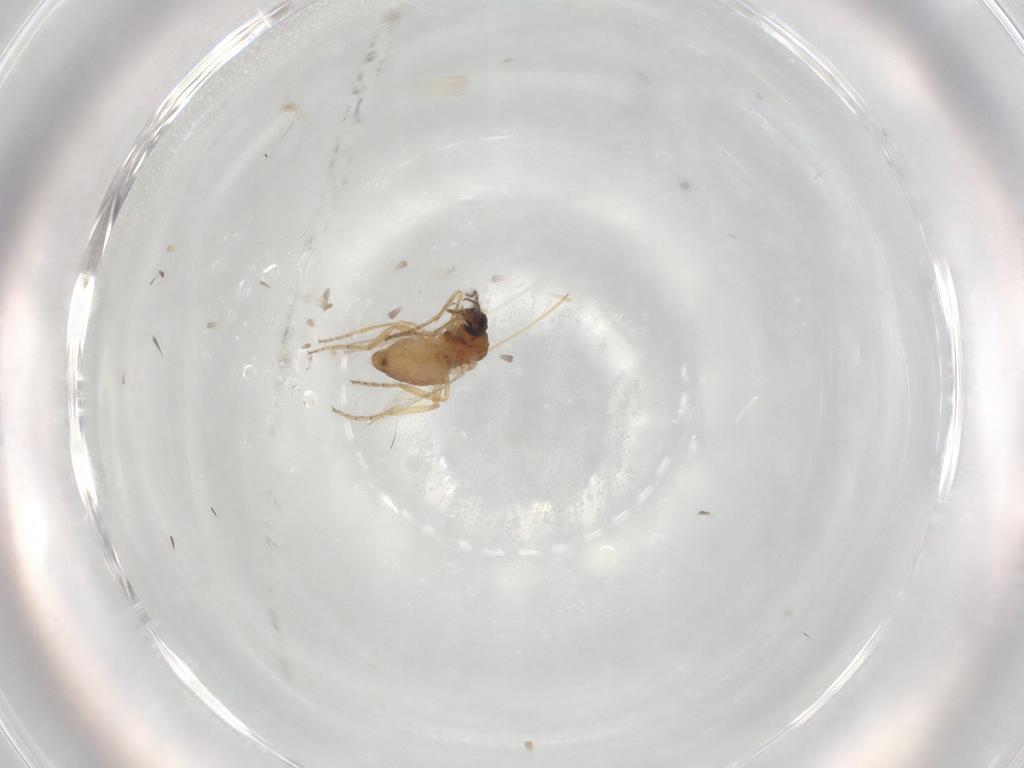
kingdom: Animalia
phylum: Arthropoda
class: Insecta
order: Diptera
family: Ceratopogonidae
